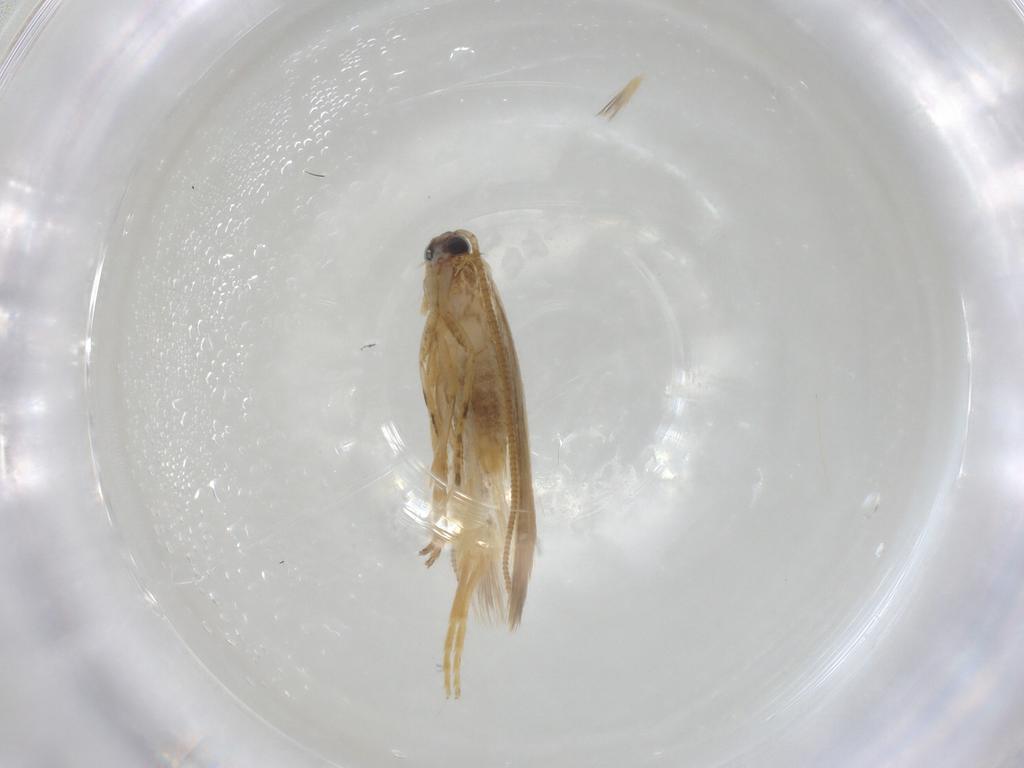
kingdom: Animalia
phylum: Arthropoda
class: Insecta
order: Lepidoptera
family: Tineidae
